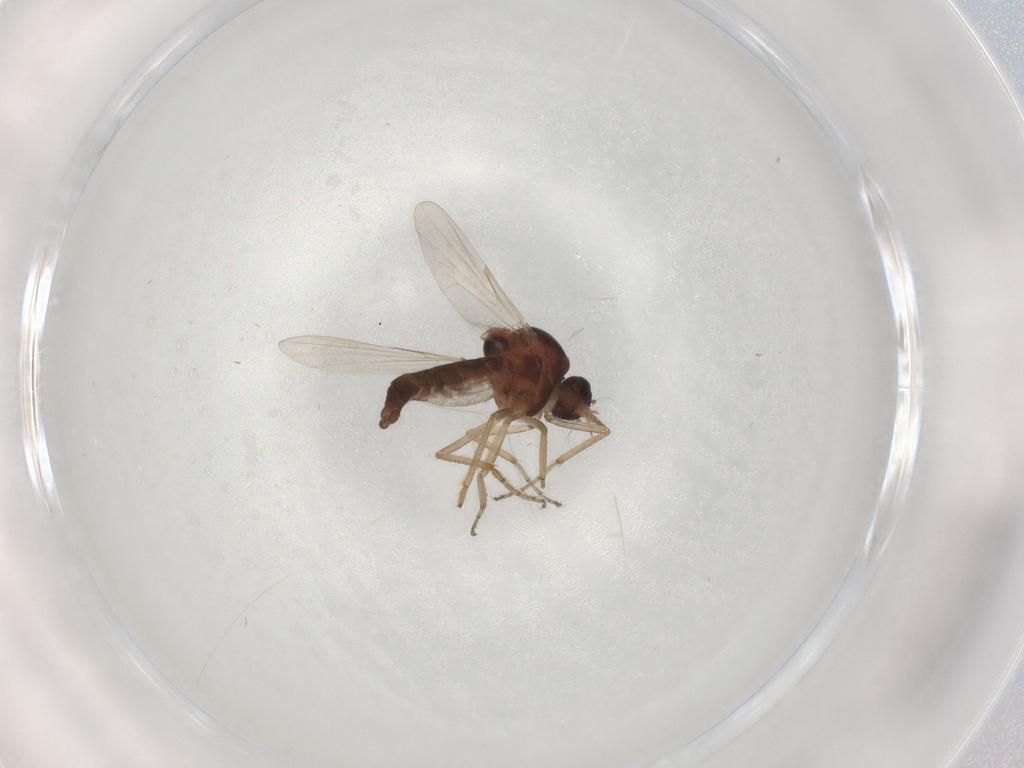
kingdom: Animalia
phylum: Arthropoda
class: Insecta
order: Diptera
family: Ceratopogonidae
